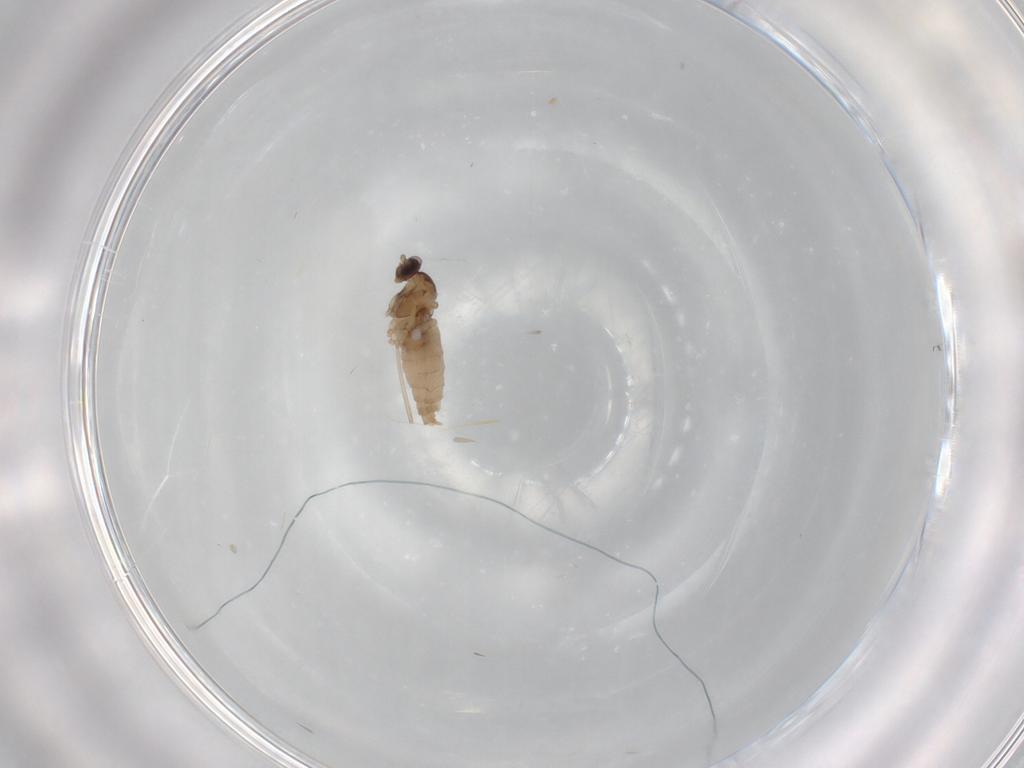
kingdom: Animalia
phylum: Arthropoda
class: Insecta
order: Diptera
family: Cecidomyiidae
